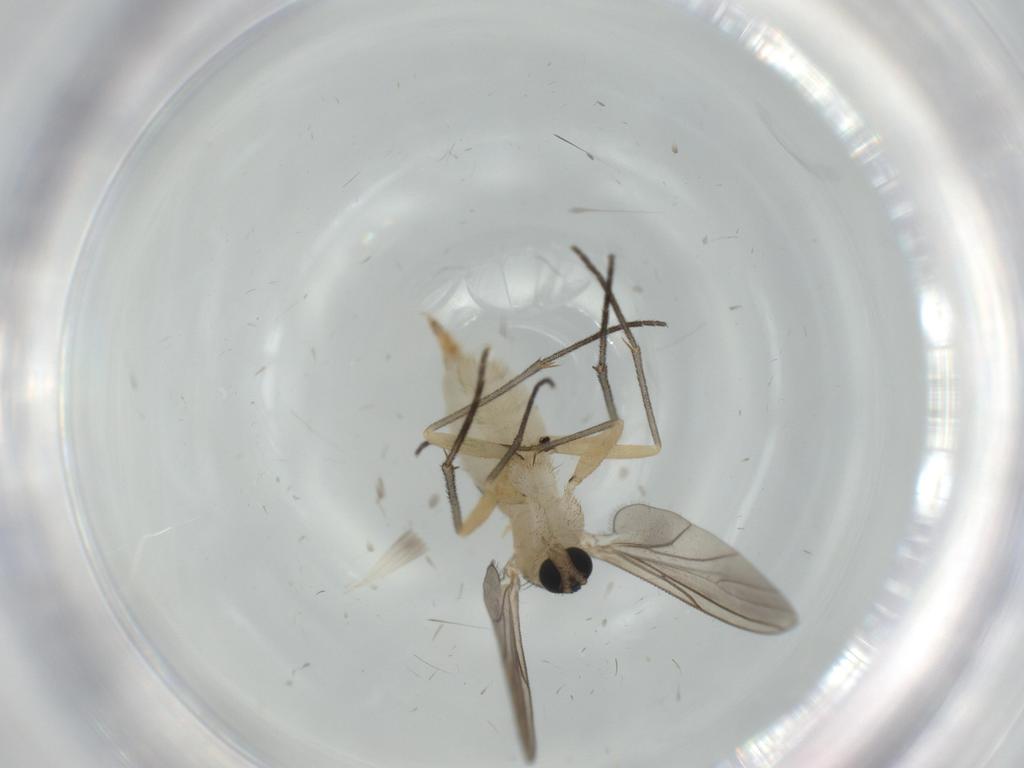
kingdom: Animalia
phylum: Arthropoda
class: Insecta
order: Diptera
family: Sciaridae
